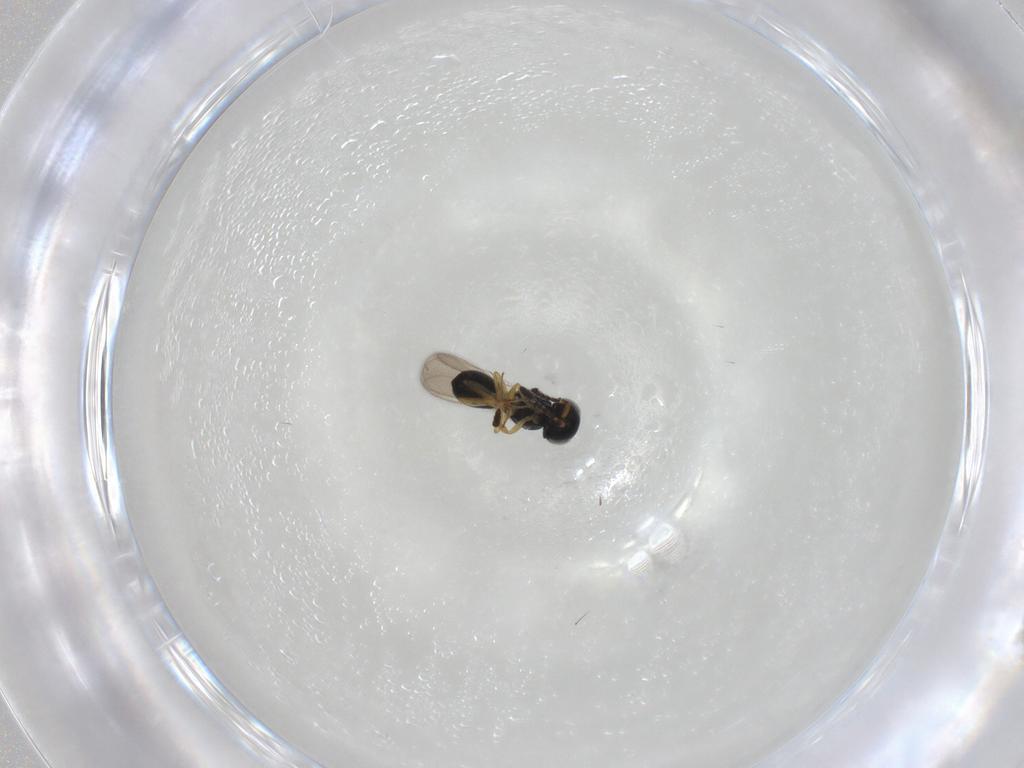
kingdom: Animalia
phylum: Arthropoda
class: Insecta
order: Hymenoptera
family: Scelionidae
